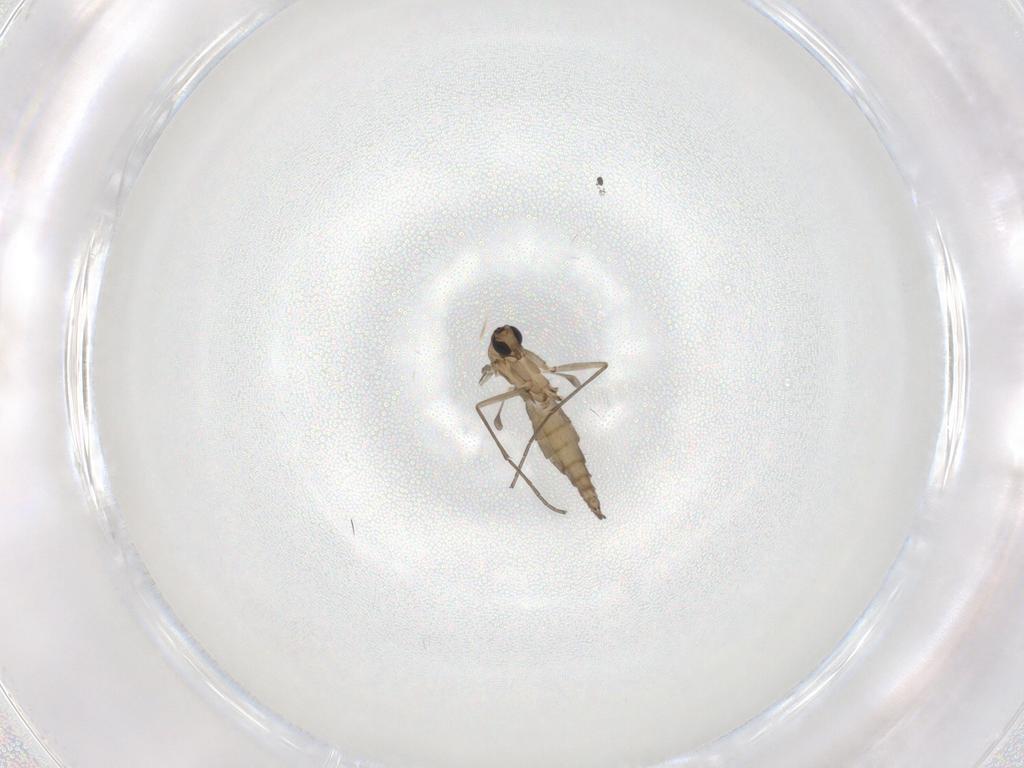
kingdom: Animalia
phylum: Arthropoda
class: Insecta
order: Diptera
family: Sciaridae
